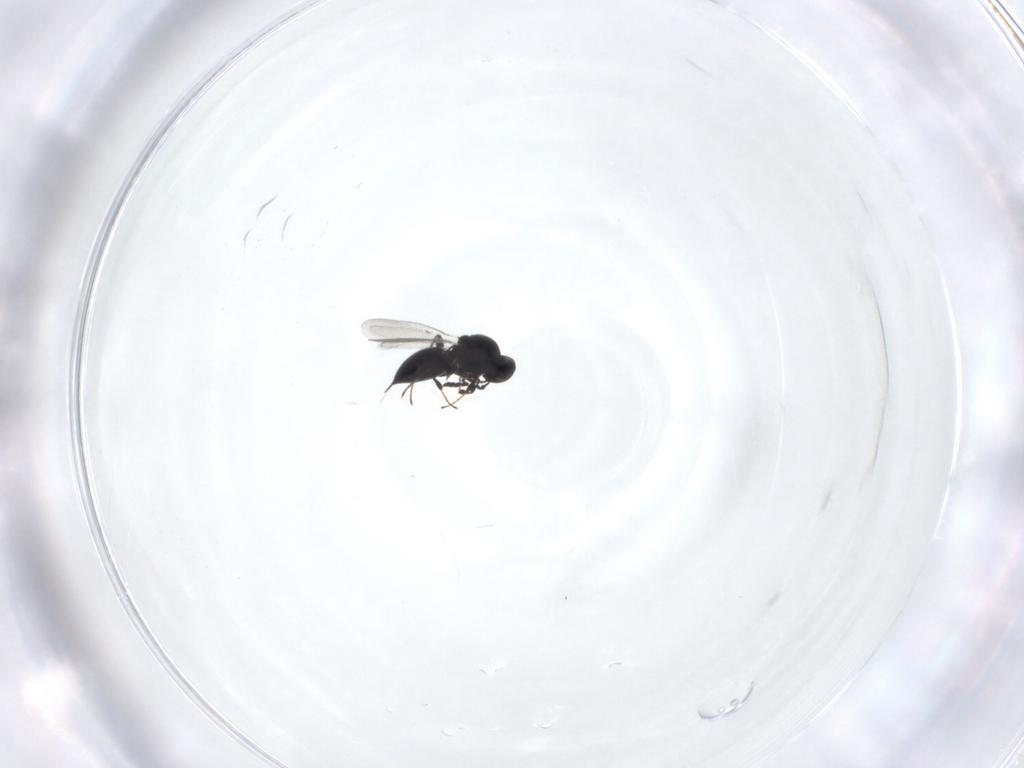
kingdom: Animalia
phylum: Arthropoda
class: Insecta
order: Hymenoptera
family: Platygastridae
